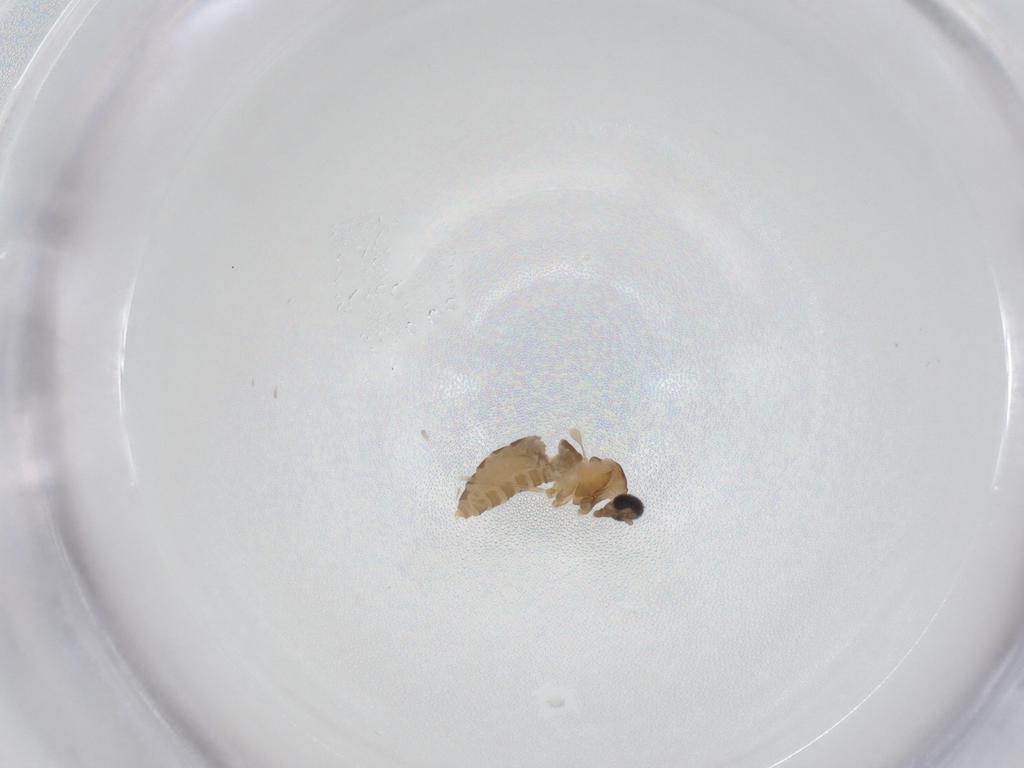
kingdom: Animalia
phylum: Arthropoda
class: Insecta
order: Diptera
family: Cecidomyiidae
